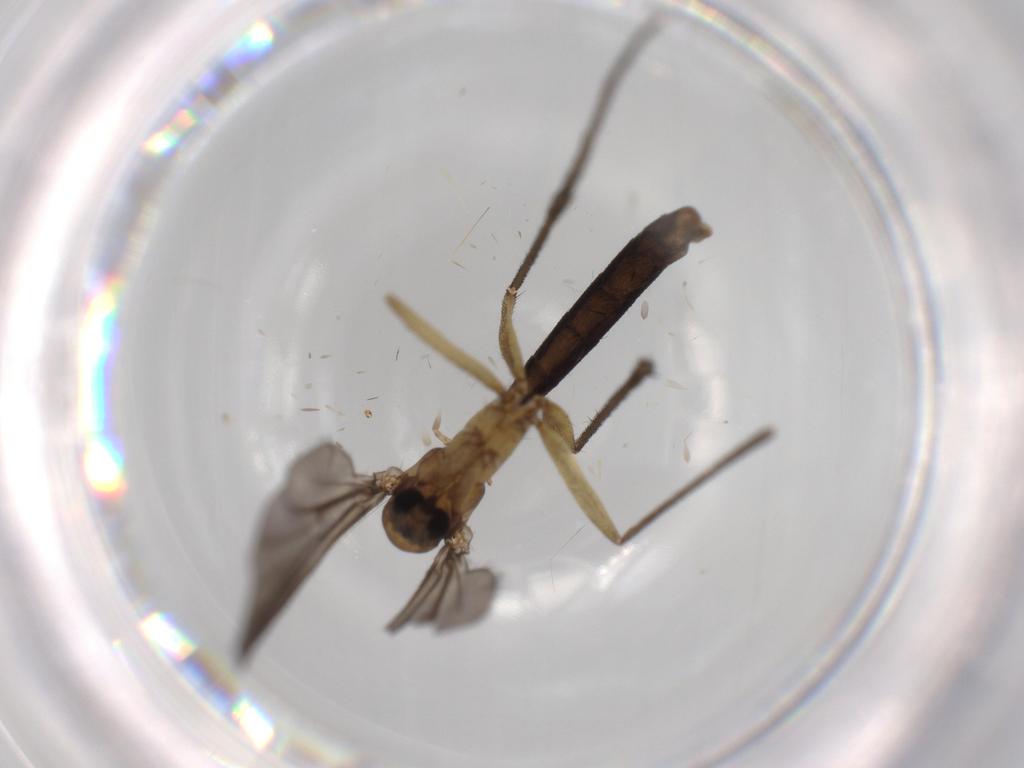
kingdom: Animalia
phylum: Arthropoda
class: Insecta
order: Diptera
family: Ditomyiidae
